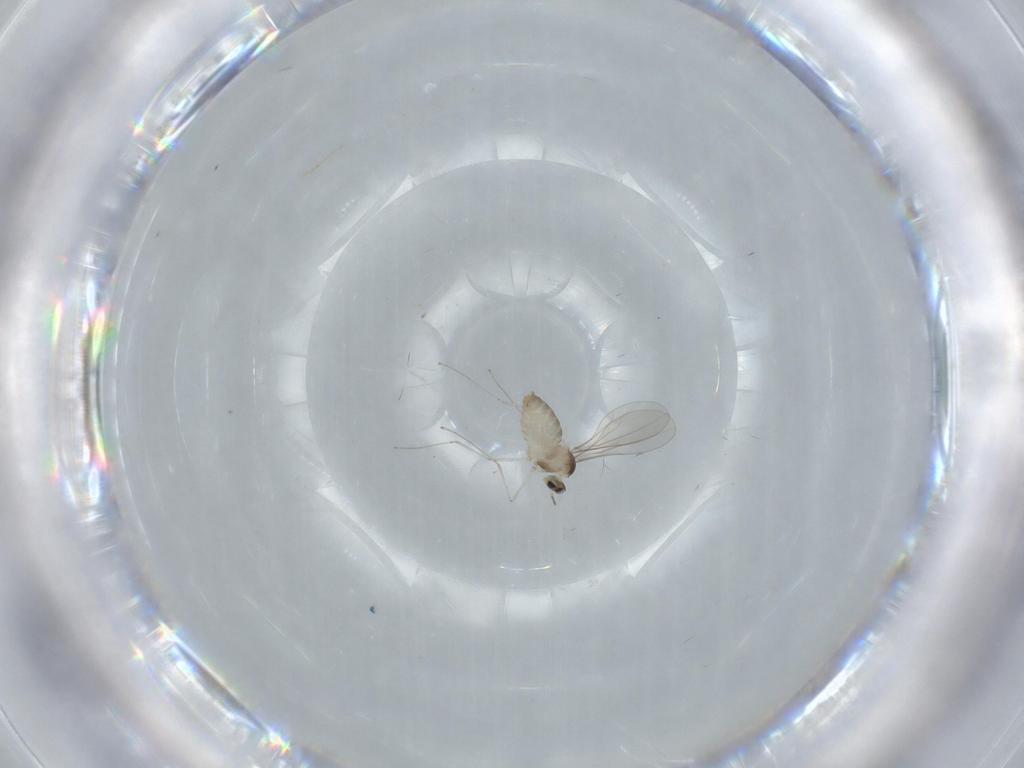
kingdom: Animalia
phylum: Arthropoda
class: Insecta
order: Diptera
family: Cecidomyiidae
